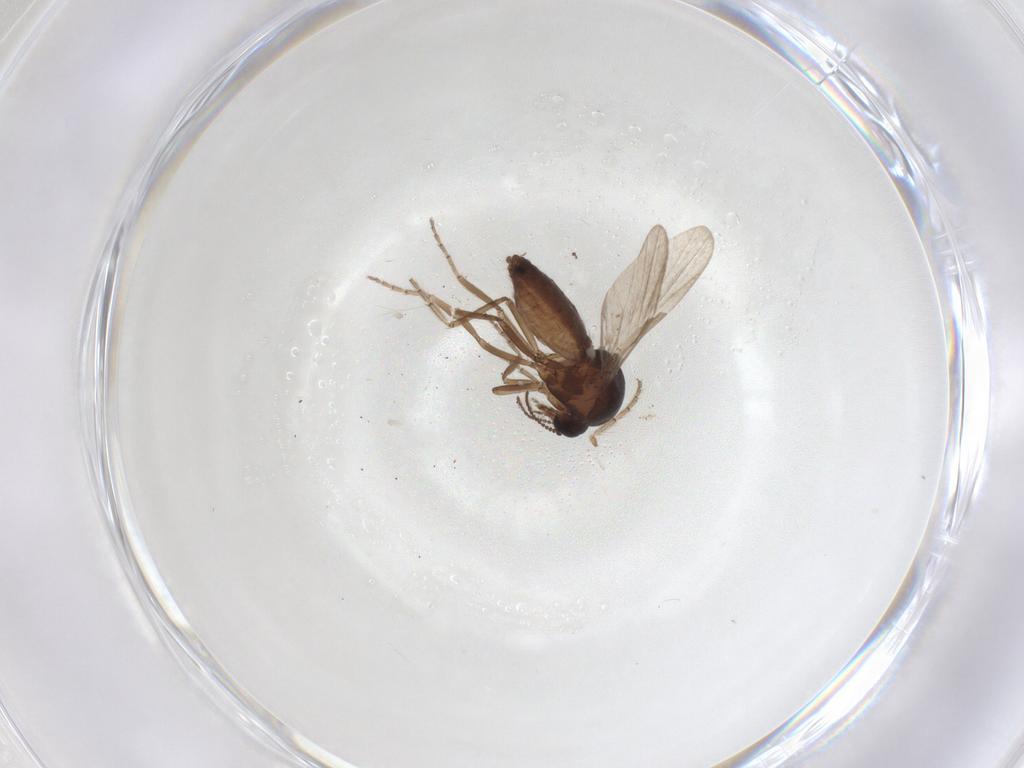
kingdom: Animalia
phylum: Arthropoda
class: Insecta
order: Diptera
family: Ceratopogonidae
